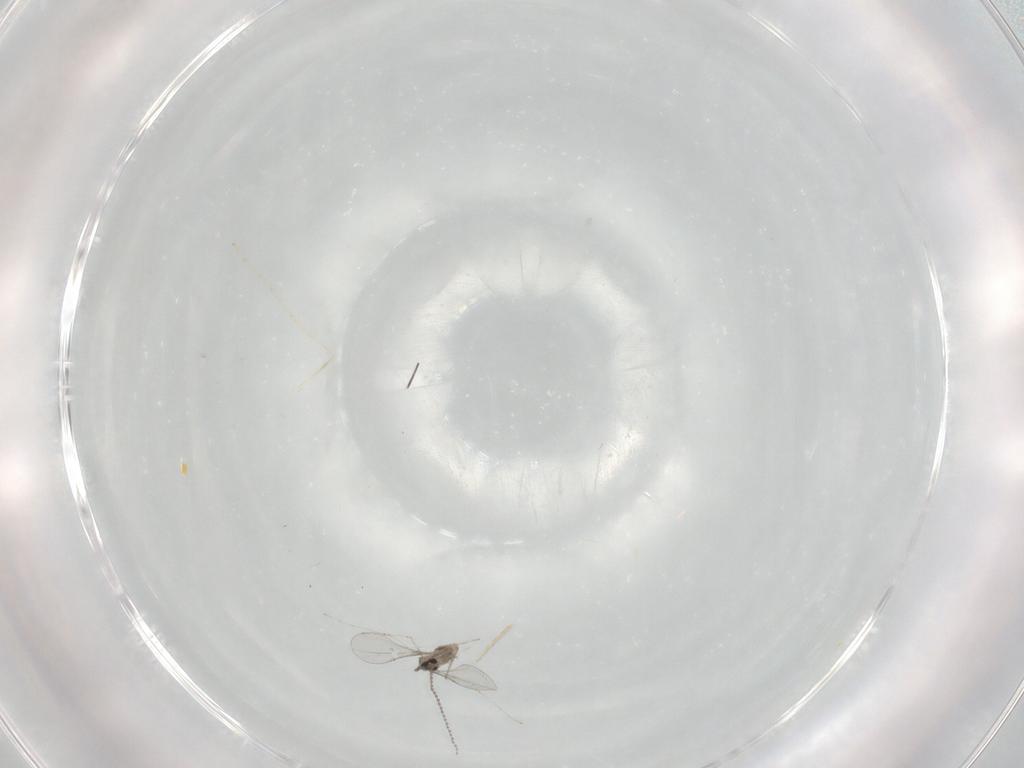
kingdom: Animalia
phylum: Arthropoda
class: Insecta
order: Diptera
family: Cecidomyiidae
